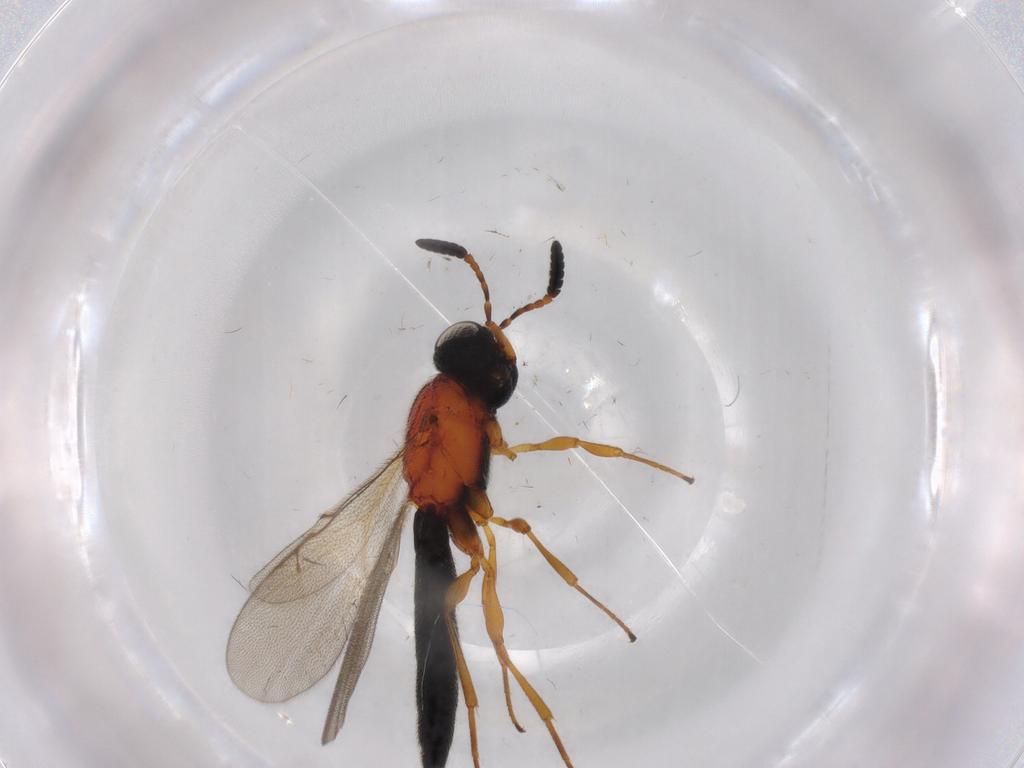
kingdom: Animalia
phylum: Arthropoda
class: Insecta
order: Hymenoptera
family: Scelionidae
